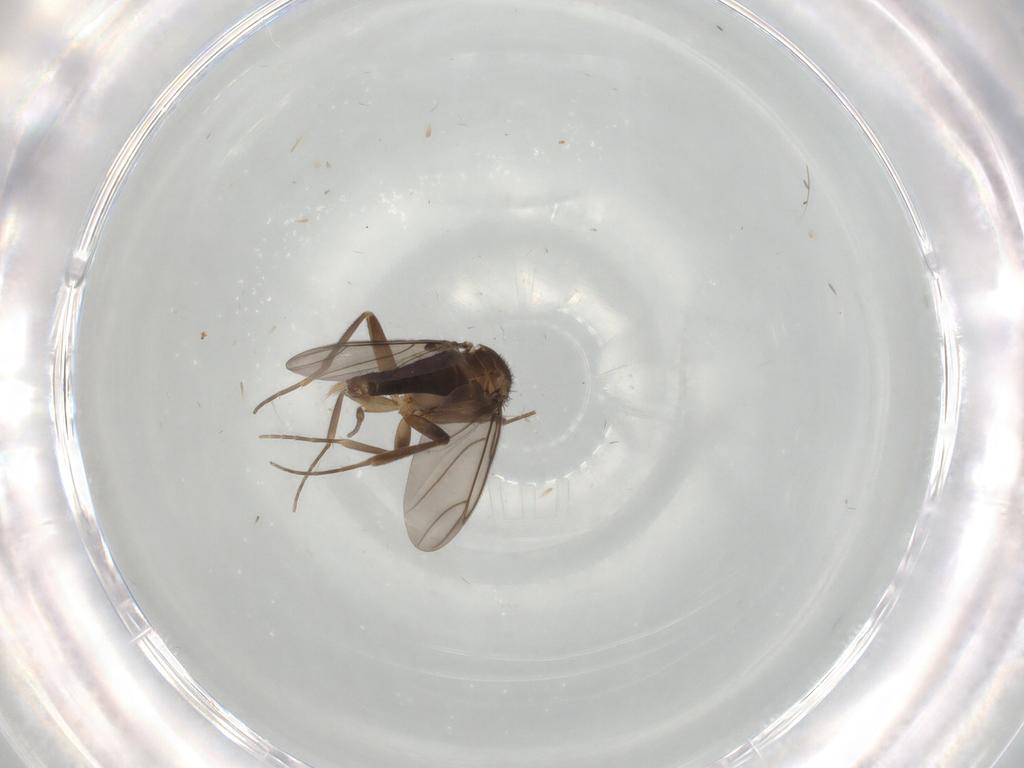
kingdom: Animalia
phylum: Arthropoda
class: Insecta
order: Diptera
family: Phoridae
